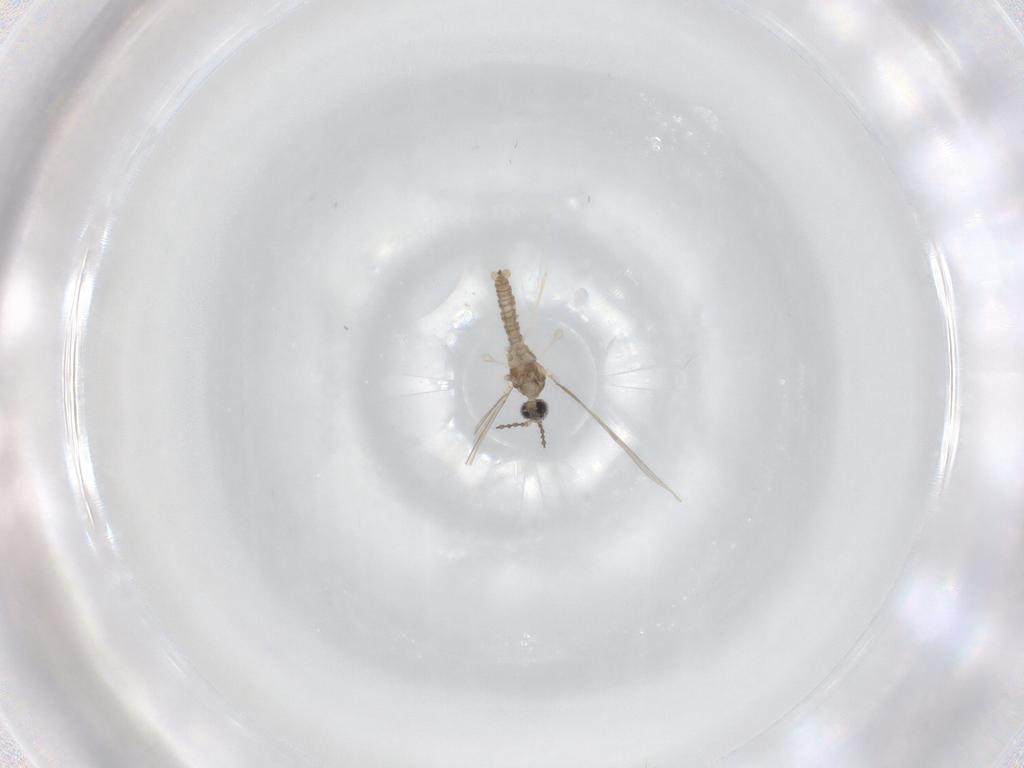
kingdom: Animalia
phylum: Arthropoda
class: Insecta
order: Diptera
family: Cecidomyiidae
